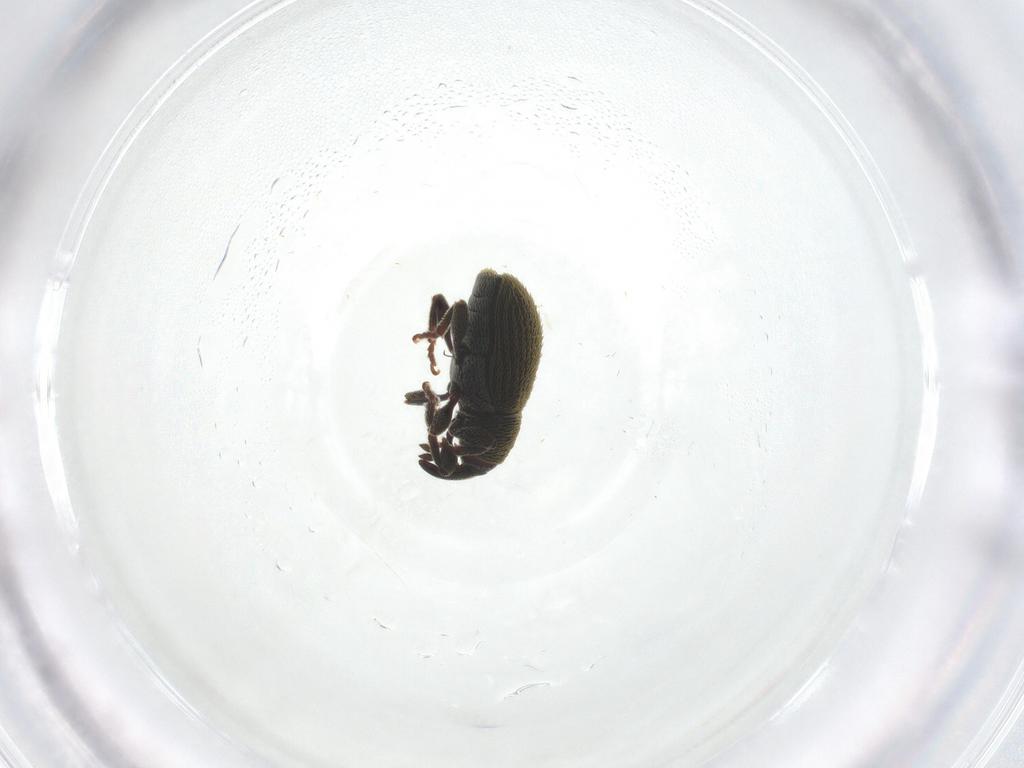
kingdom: Animalia
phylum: Arthropoda
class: Insecta
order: Coleoptera
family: Curculionidae
